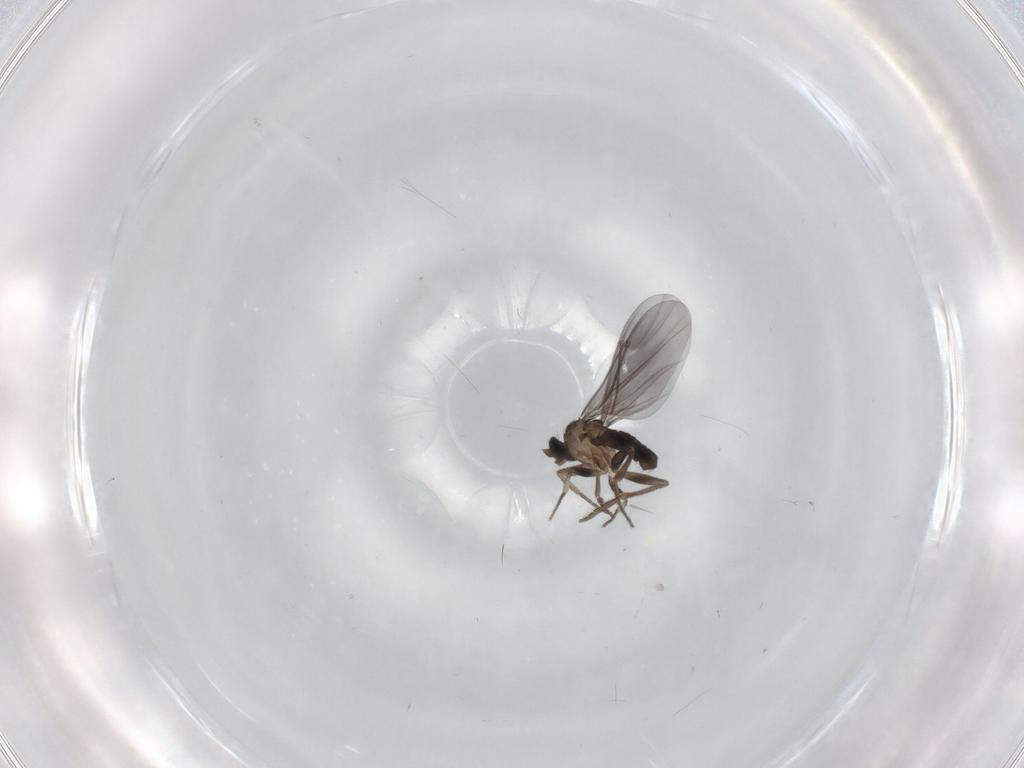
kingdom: Animalia
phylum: Arthropoda
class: Insecta
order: Diptera
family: Phoridae
